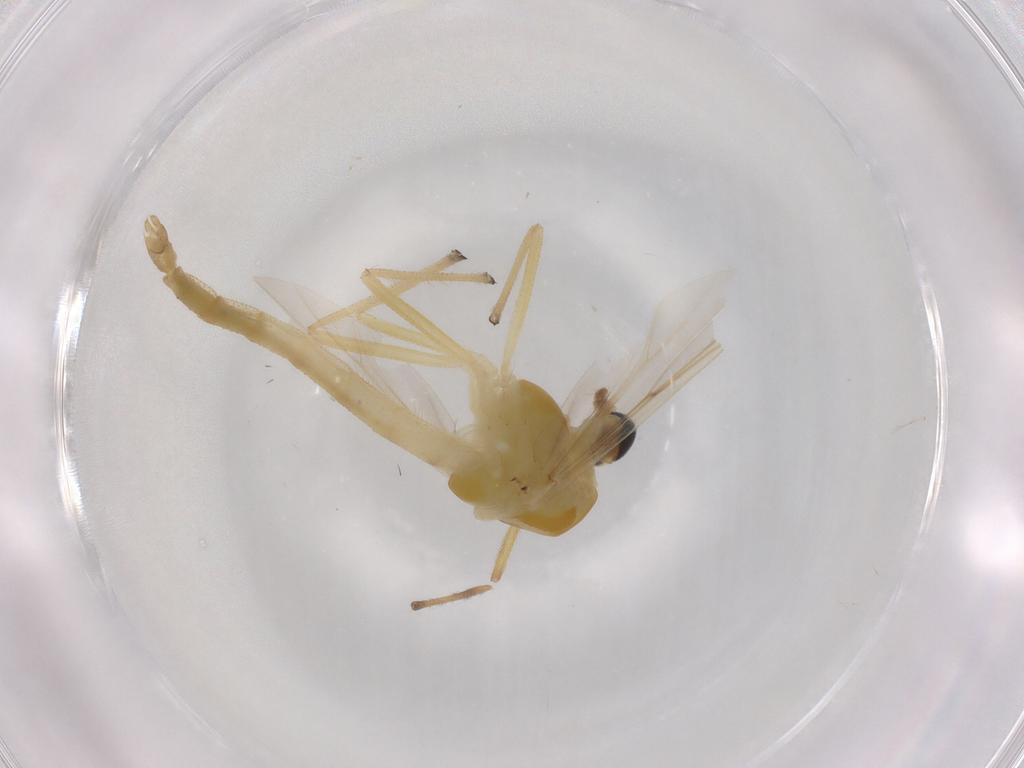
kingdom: Animalia
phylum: Arthropoda
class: Insecta
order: Diptera
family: Chironomidae
